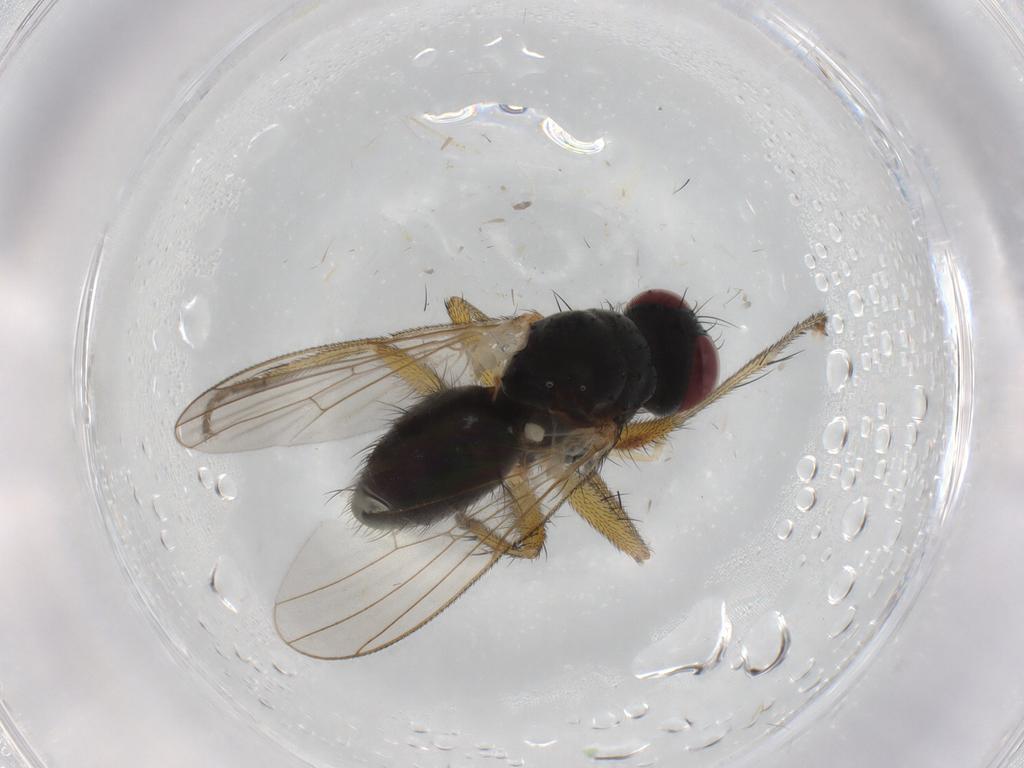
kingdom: Animalia
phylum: Arthropoda
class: Insecta
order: Diptera
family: Muscidae
